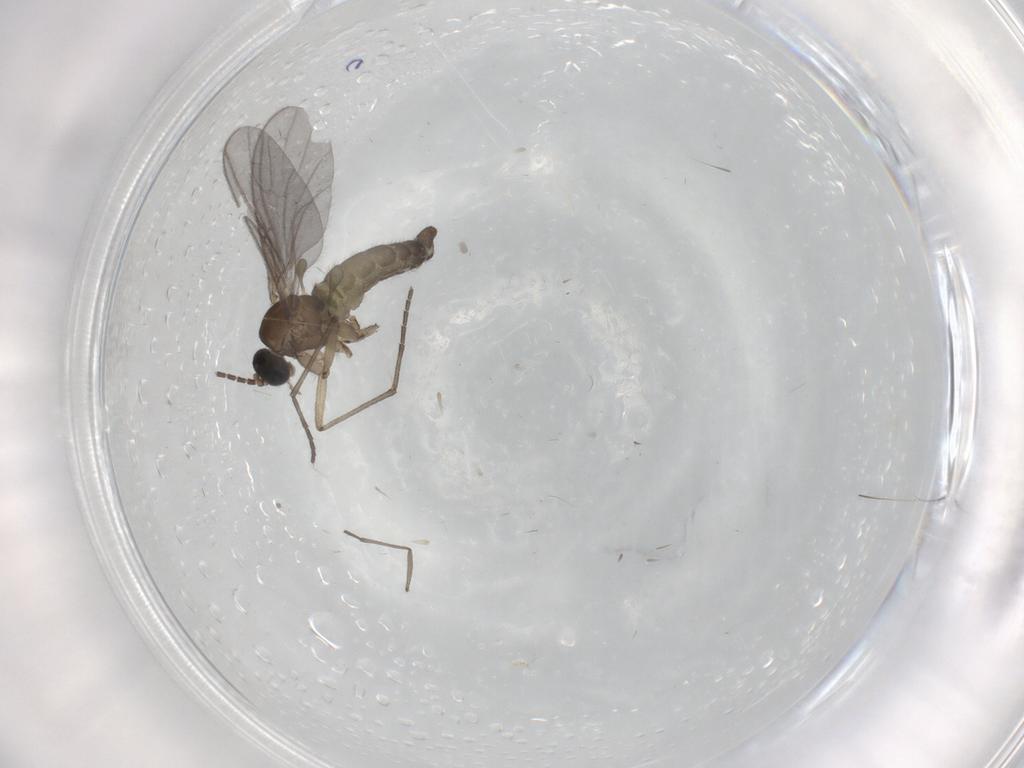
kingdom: Animalia
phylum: Arthropoda
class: Insecta
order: Diptera
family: Sciaridae
